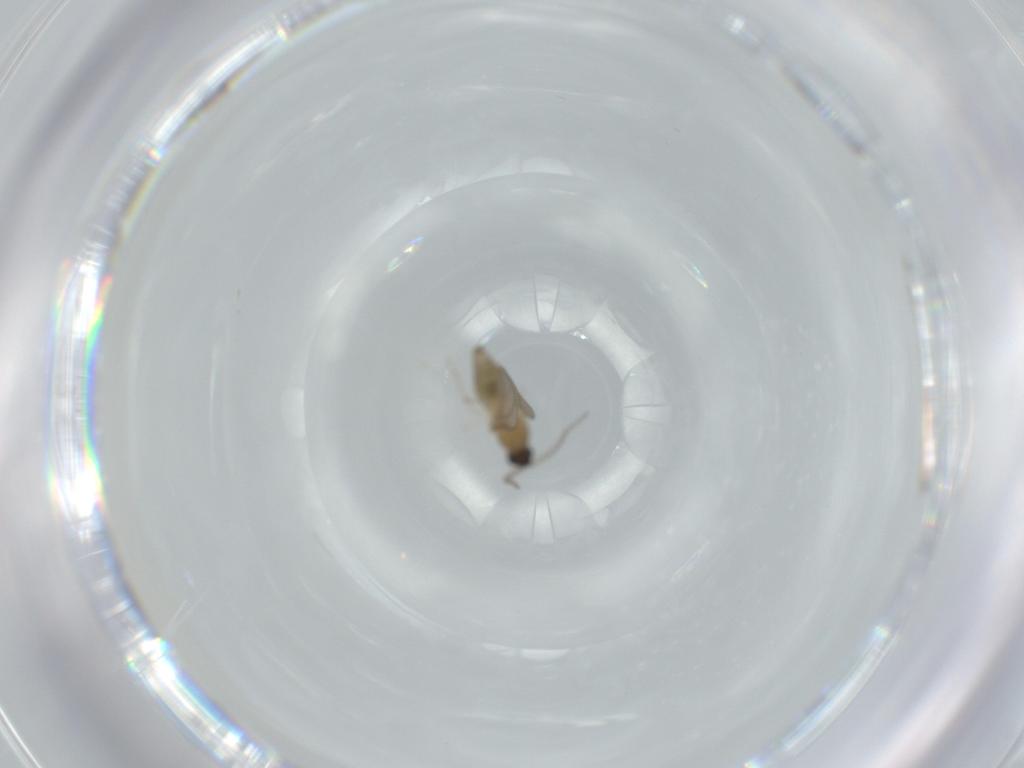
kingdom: Animalia
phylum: Arthropoda
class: Insecta
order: Diptera
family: Cecidomyiidae
